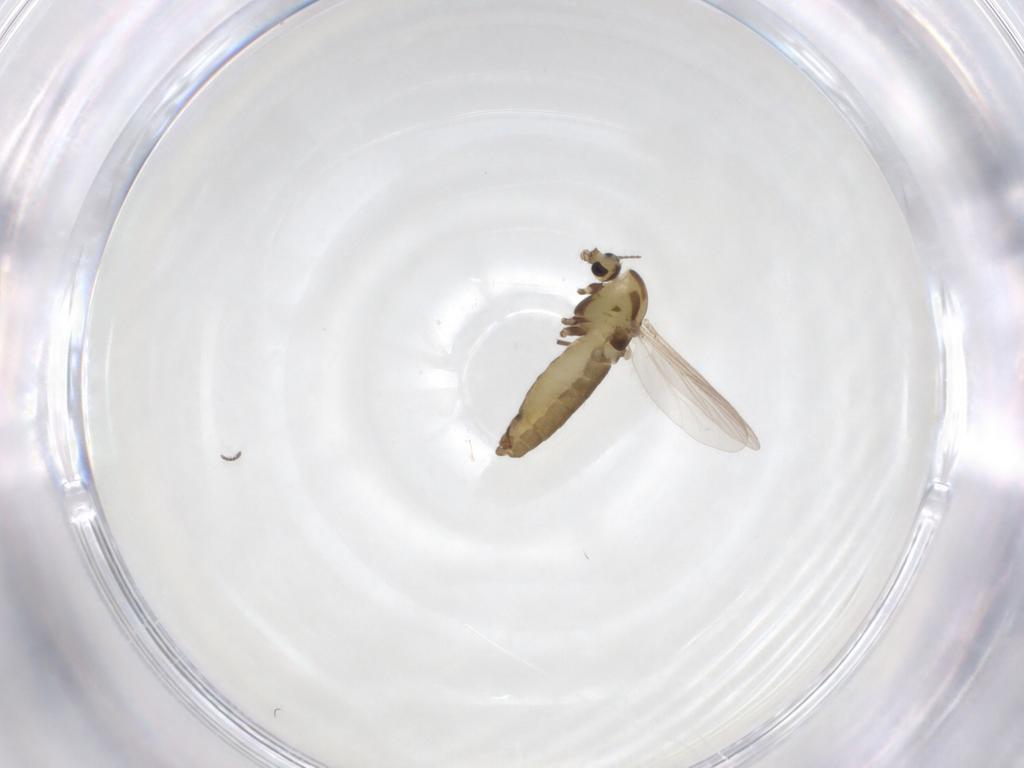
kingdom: Animalia
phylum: Arthropoda
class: Insecta
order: Diptera
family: Chironomidae
